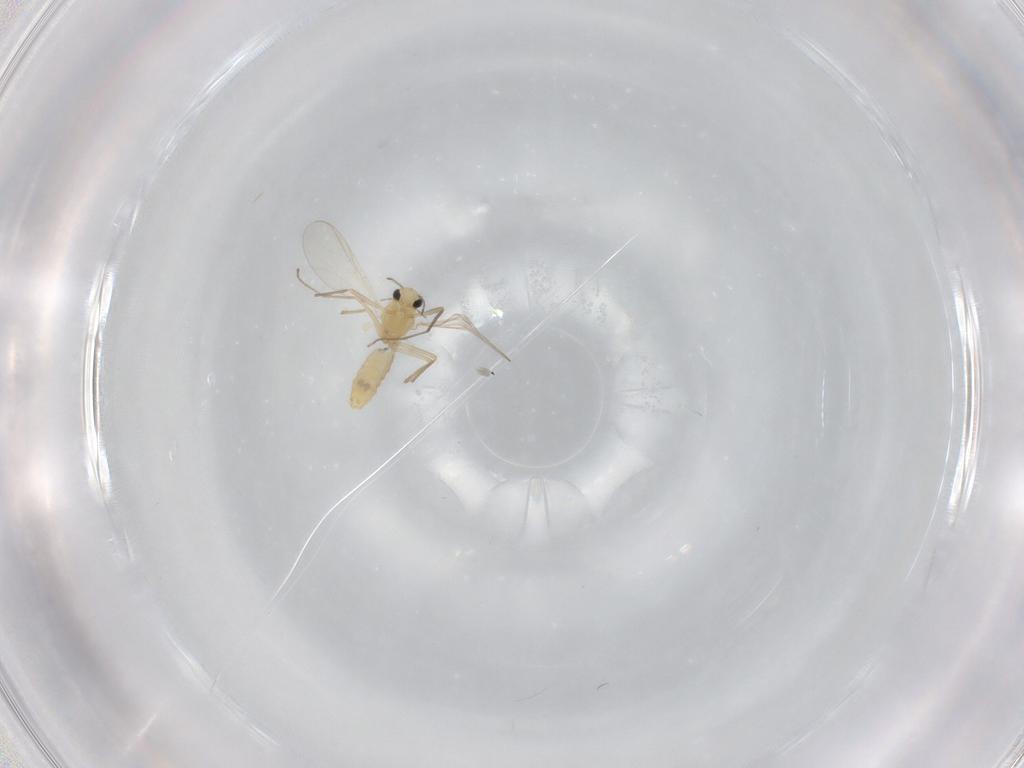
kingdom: Animalia
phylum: Arthropoda
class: Insecta
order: Diptera
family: Chironomidae
